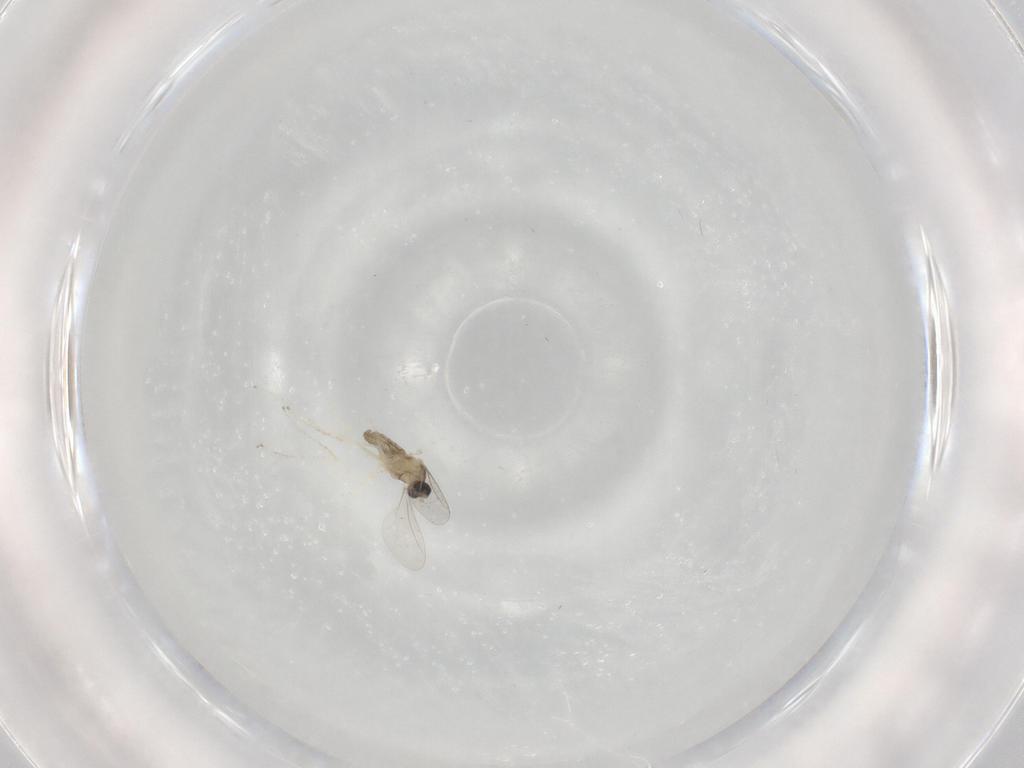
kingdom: Animalia
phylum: Arthropoda
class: Insecta
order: Diptera
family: Cecidomyiidae
